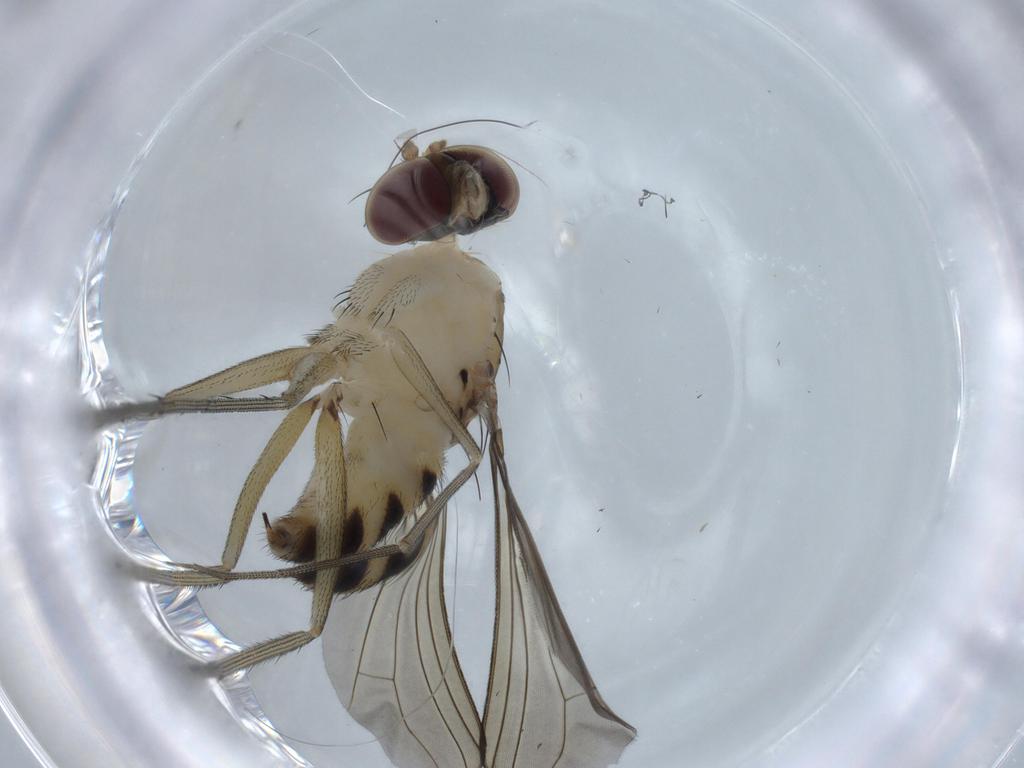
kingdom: Animalia
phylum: Arthropoda
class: Insecta
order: Diptera
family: Dolichopodidae
